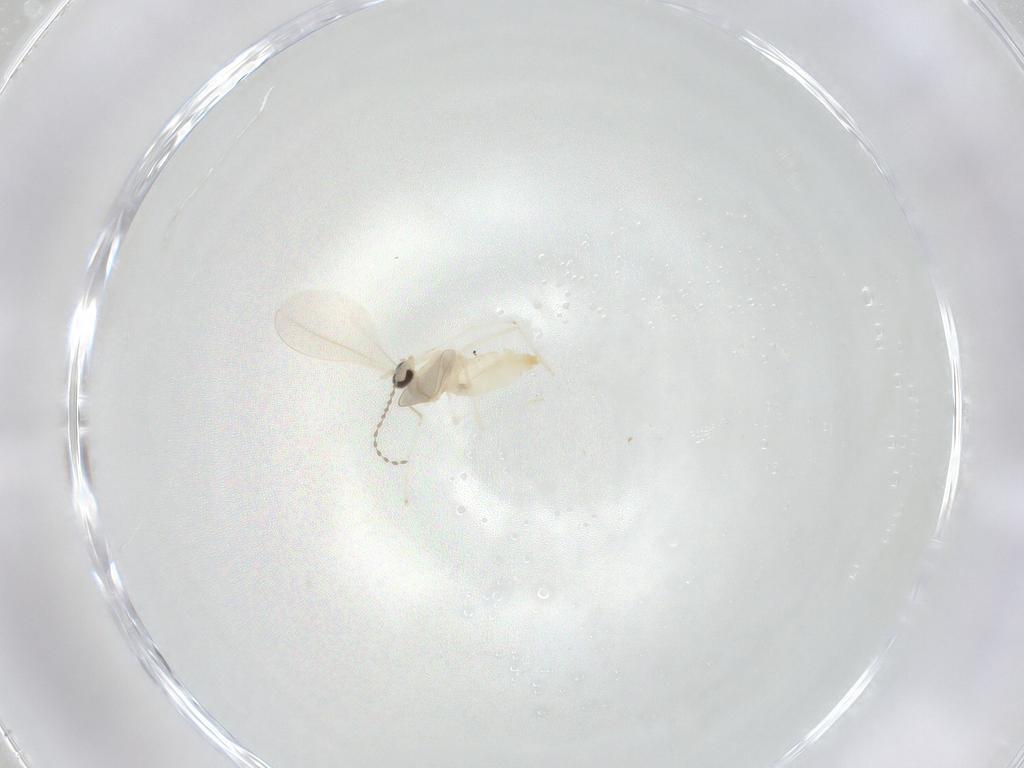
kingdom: Animalia
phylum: Arthropoda
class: Insecta
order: Diptera
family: Cecidomyiidae
